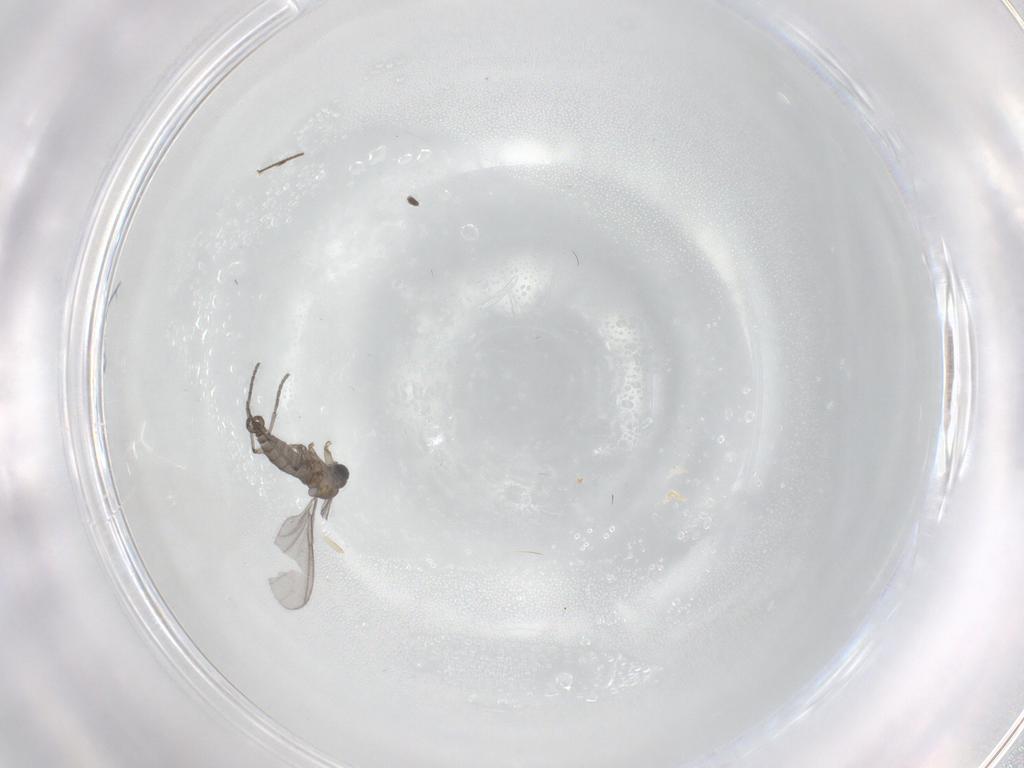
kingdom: Animalia
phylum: Arthropoda
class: Insecta
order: Diptera
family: Sciaridae
